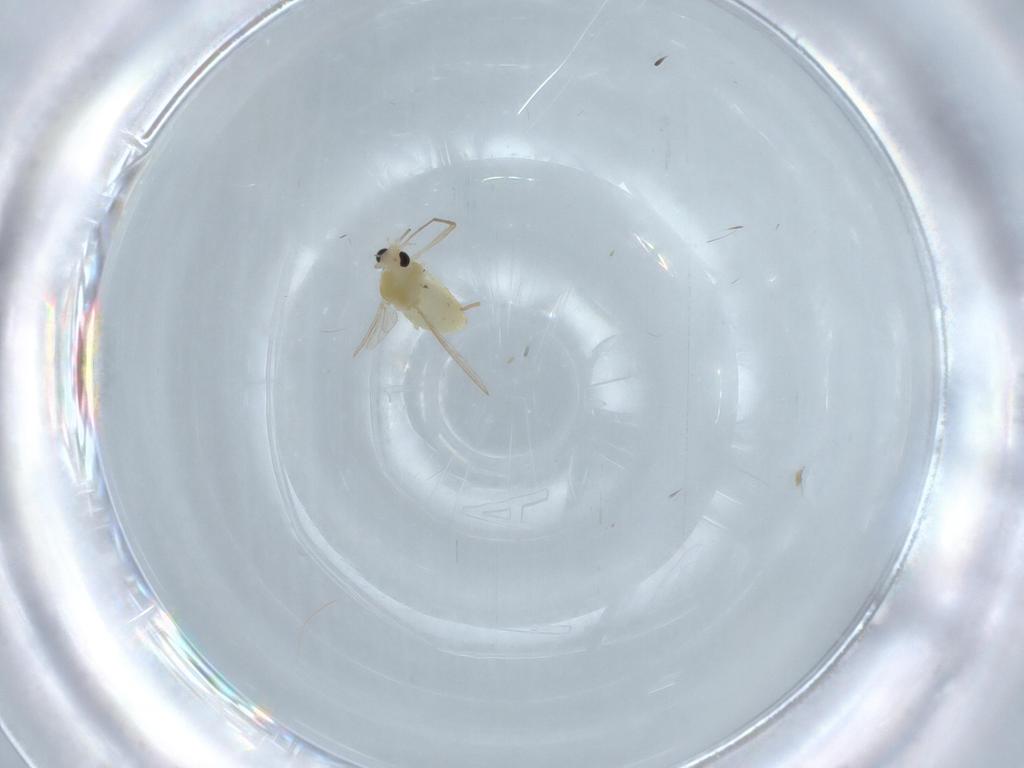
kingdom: Animalia
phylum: Arthropoda
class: Insecta
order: Diptera
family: Chironomidae
